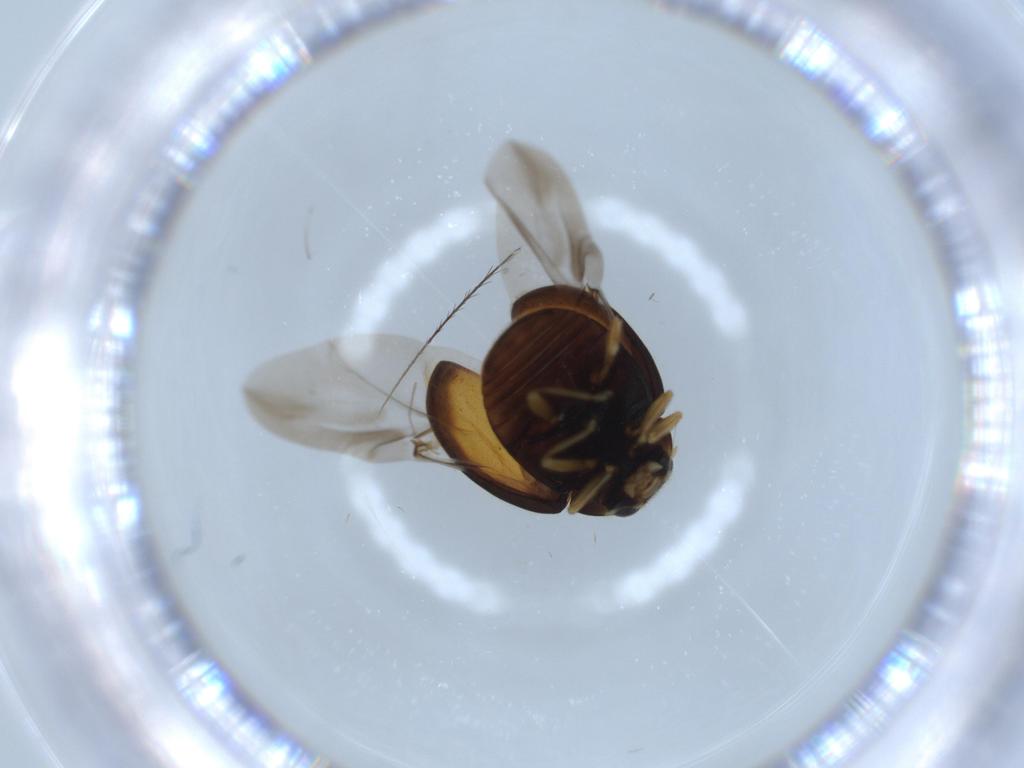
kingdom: Animalia
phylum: Arthropoda
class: Insecta
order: Coleoptera
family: Coccinellidae
